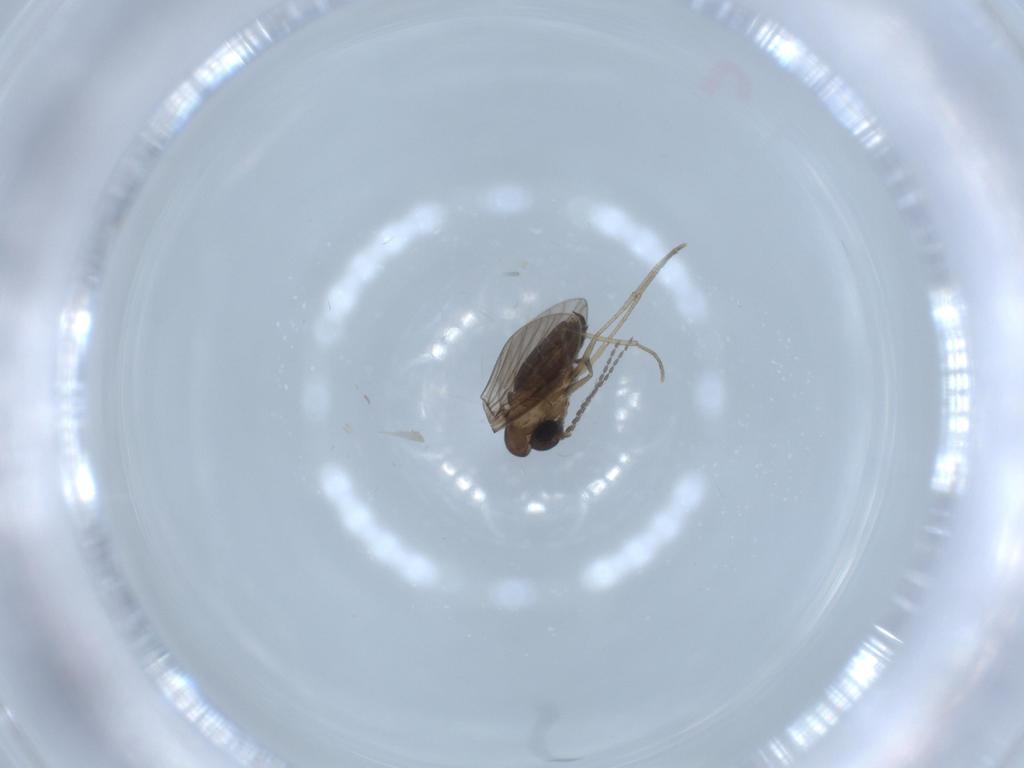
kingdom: Animalia
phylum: Arthropoda
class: Insecta
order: Diptera
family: Psychodidae
